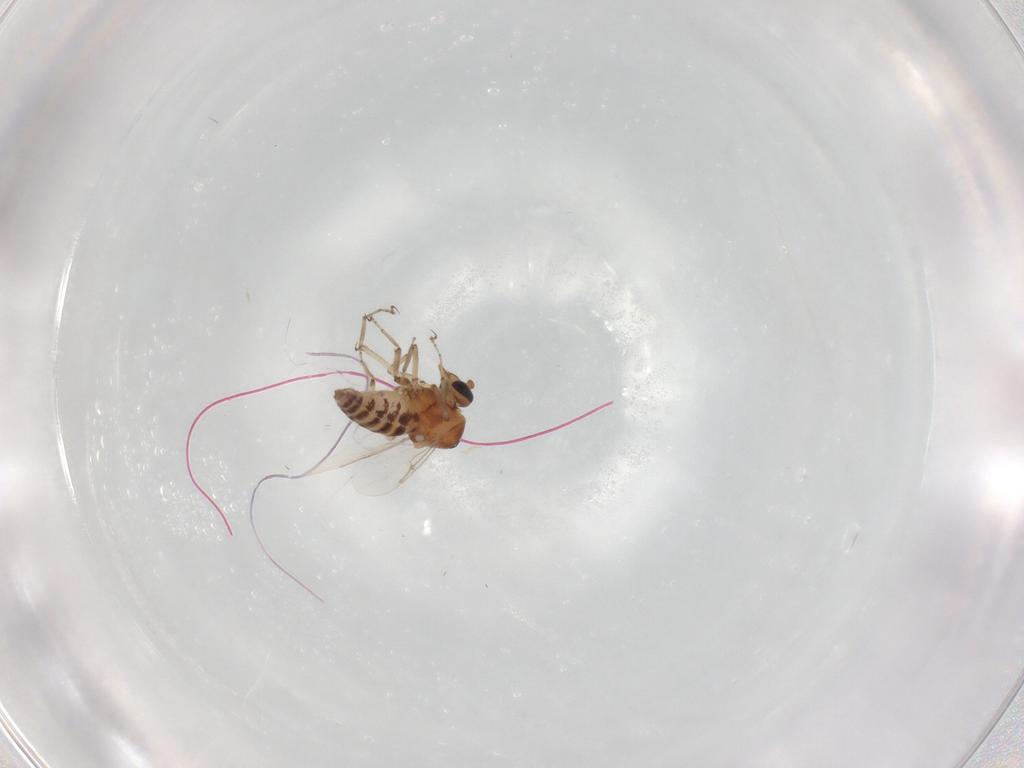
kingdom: Animalia
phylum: Arthropoda
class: Insecta
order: Diptera
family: Ceratopogonidae
